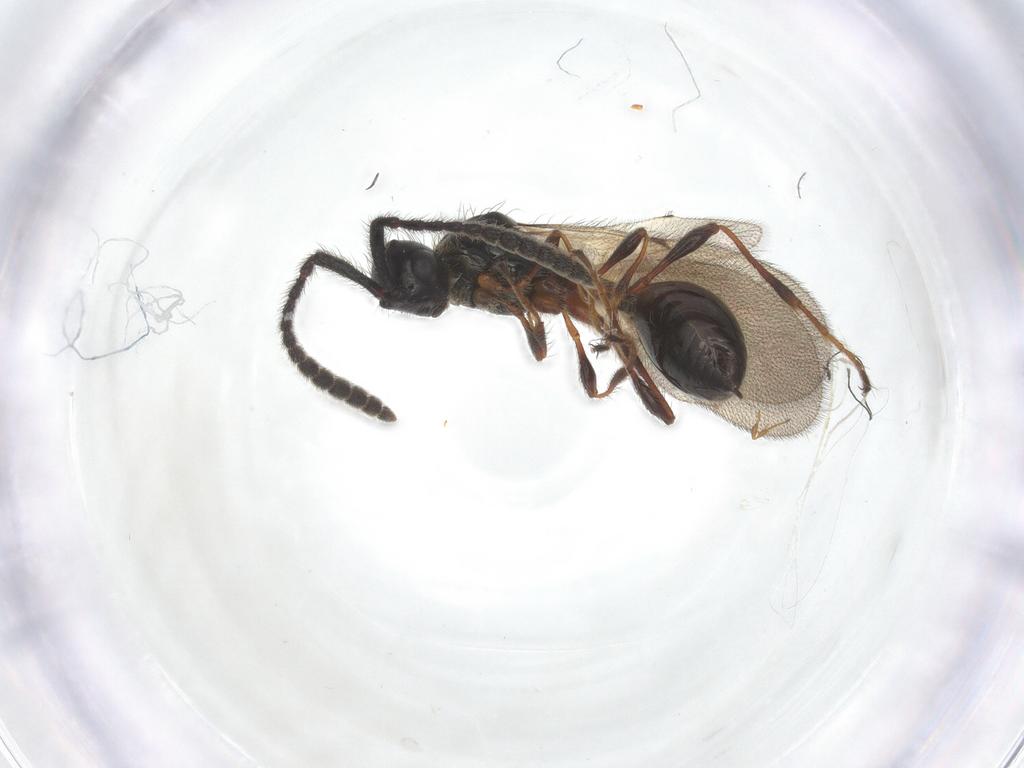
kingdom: Animalia
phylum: Arthropoda
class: Insecta
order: Hymenoptera
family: Diapriidae
